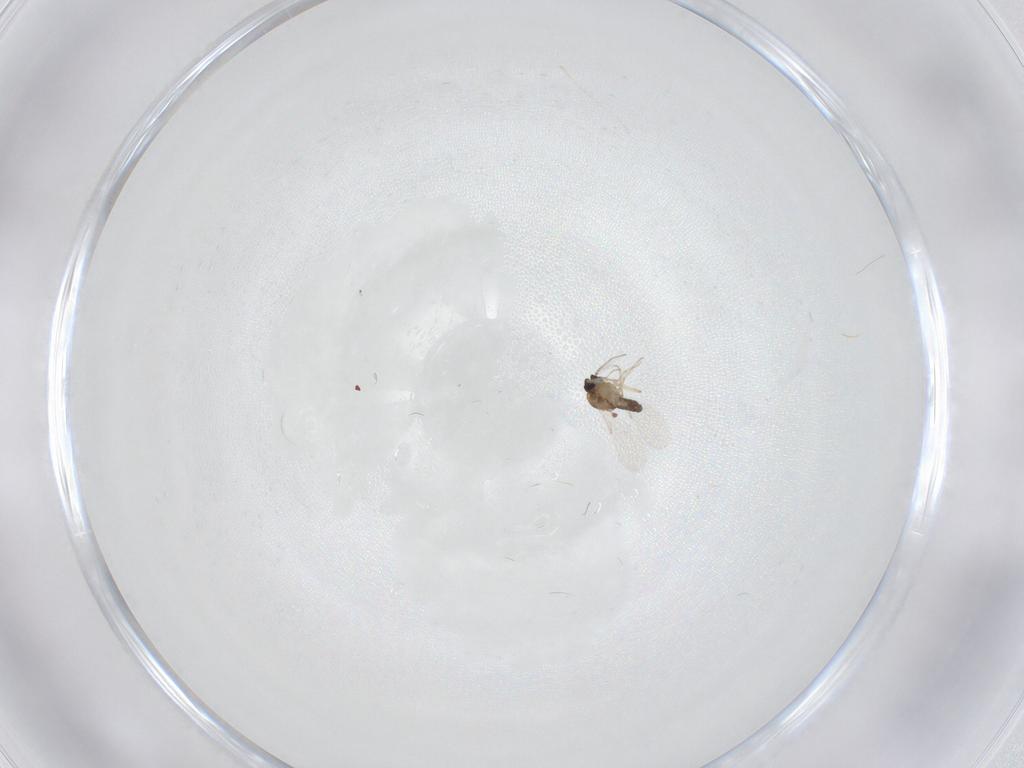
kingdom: Animalia
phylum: Arthropoda
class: Insecta
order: Diptera
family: Cecidomyiidae
